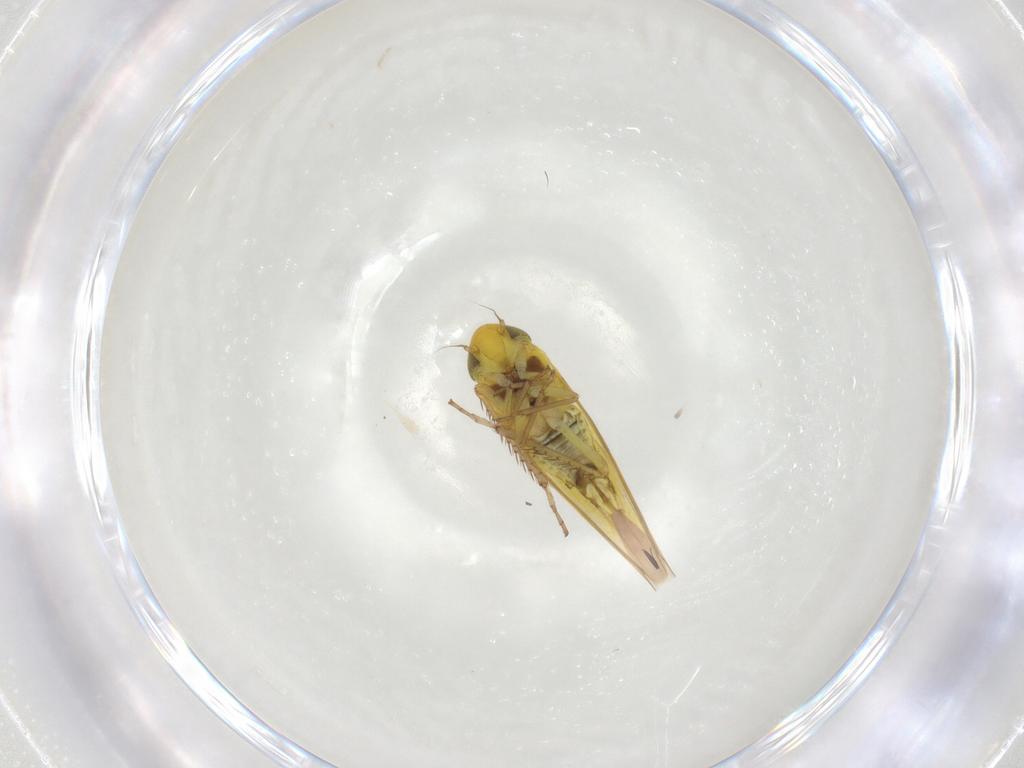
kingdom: Animalia
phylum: Arthropoda
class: Insecta
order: Hemiptera
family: Cicadellidae
